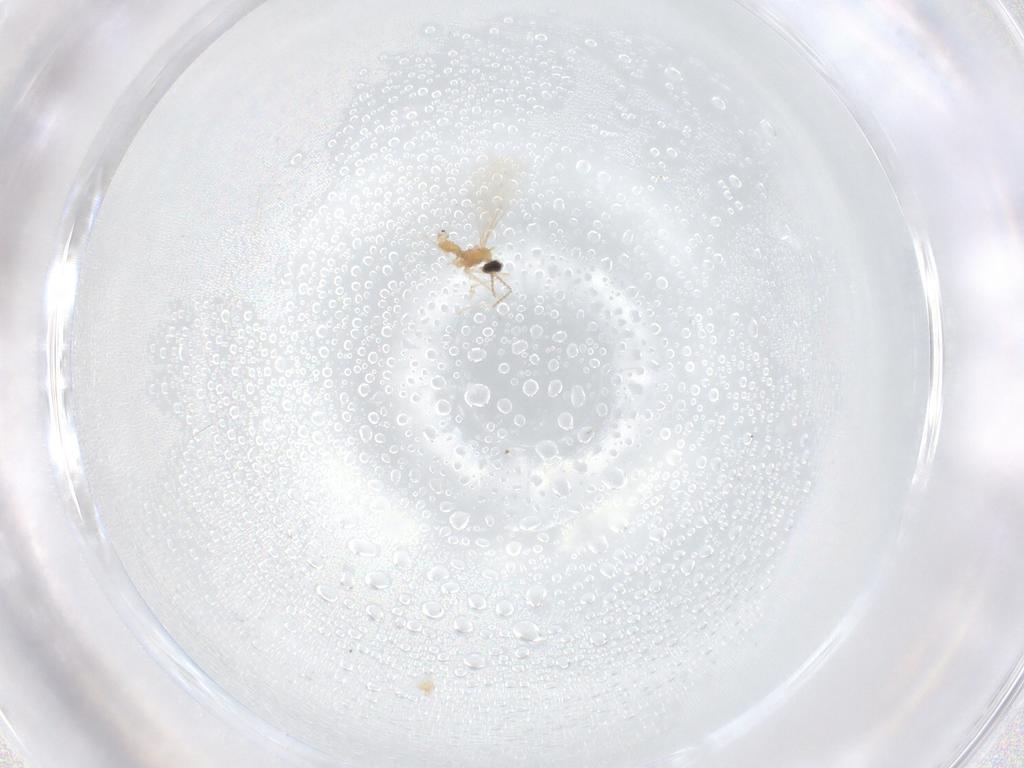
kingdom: Animalia
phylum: Arthropoda
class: Insecta
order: Diptera
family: Cecidomyiidae
